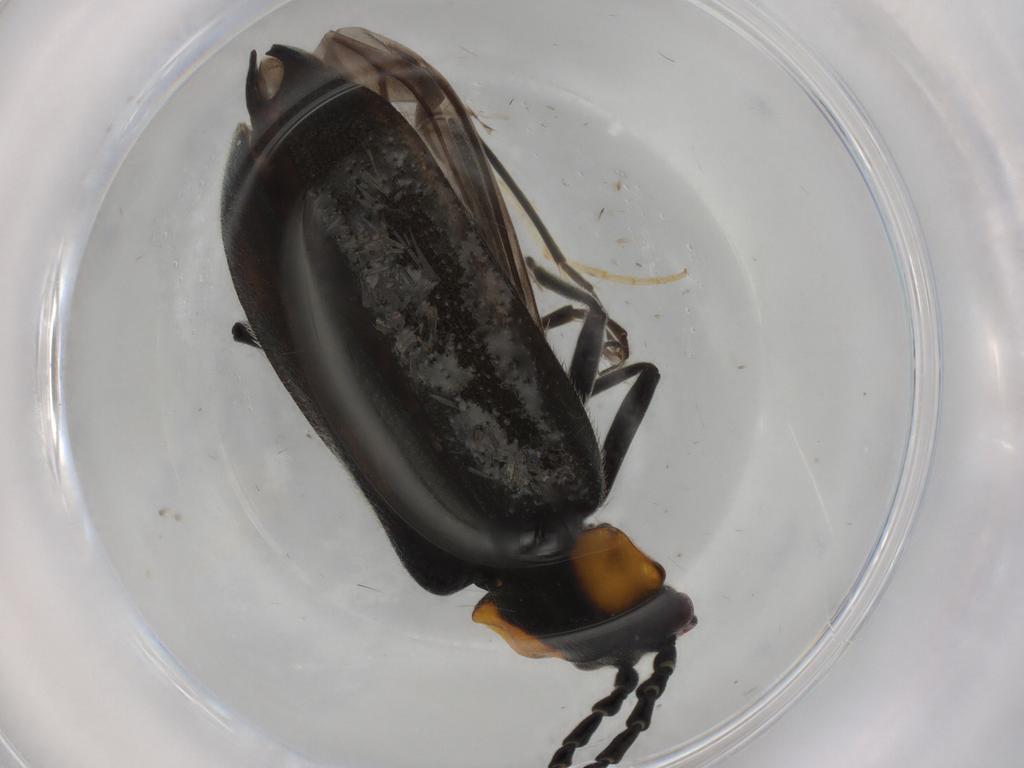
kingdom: Animalia
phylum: Arthropoda
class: Insecta
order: Coleoptera
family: Cantharidae
